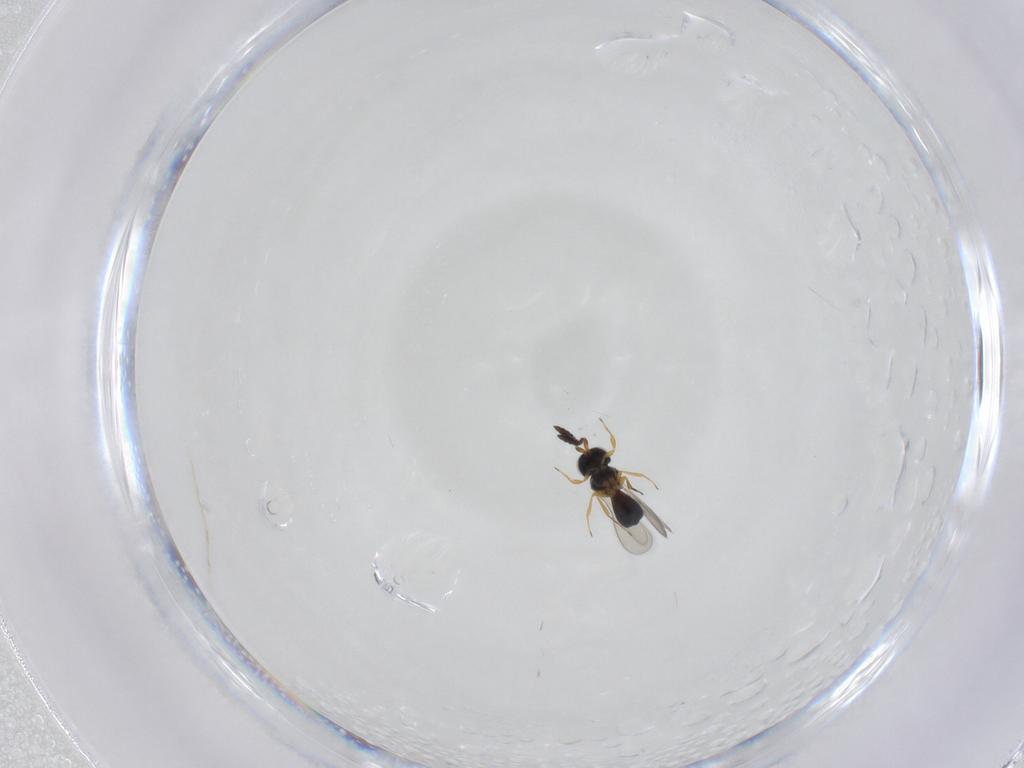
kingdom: Animalia
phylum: Arthropoda
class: Insecta
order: Hymenoptera
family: Scelionidae
